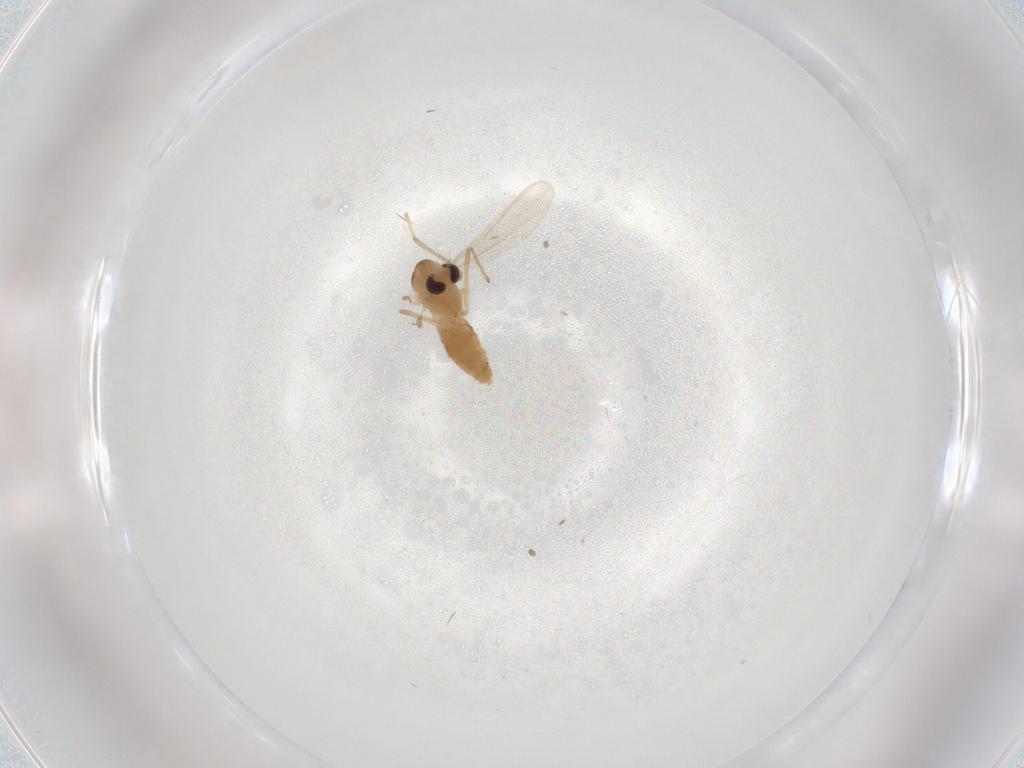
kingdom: Animalia
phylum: Arthropoda
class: Insecta
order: Diptera
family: Chironomidae
